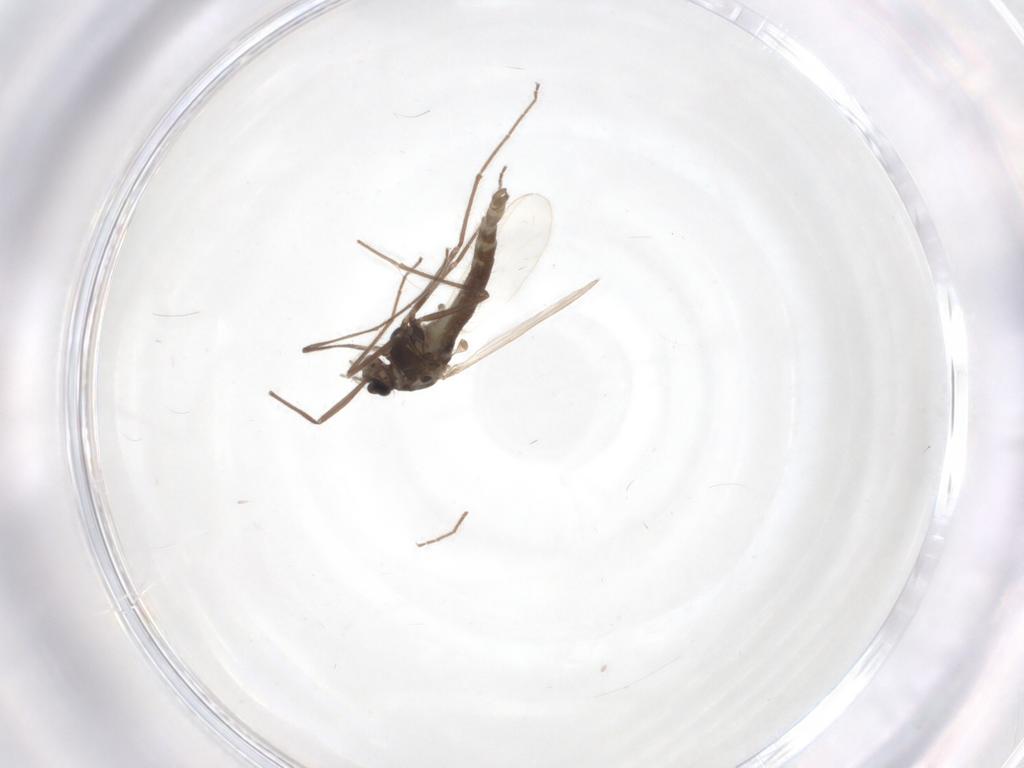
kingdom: Animalia
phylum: Arthropoda
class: Insecta
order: Diptera
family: Chironomidae
